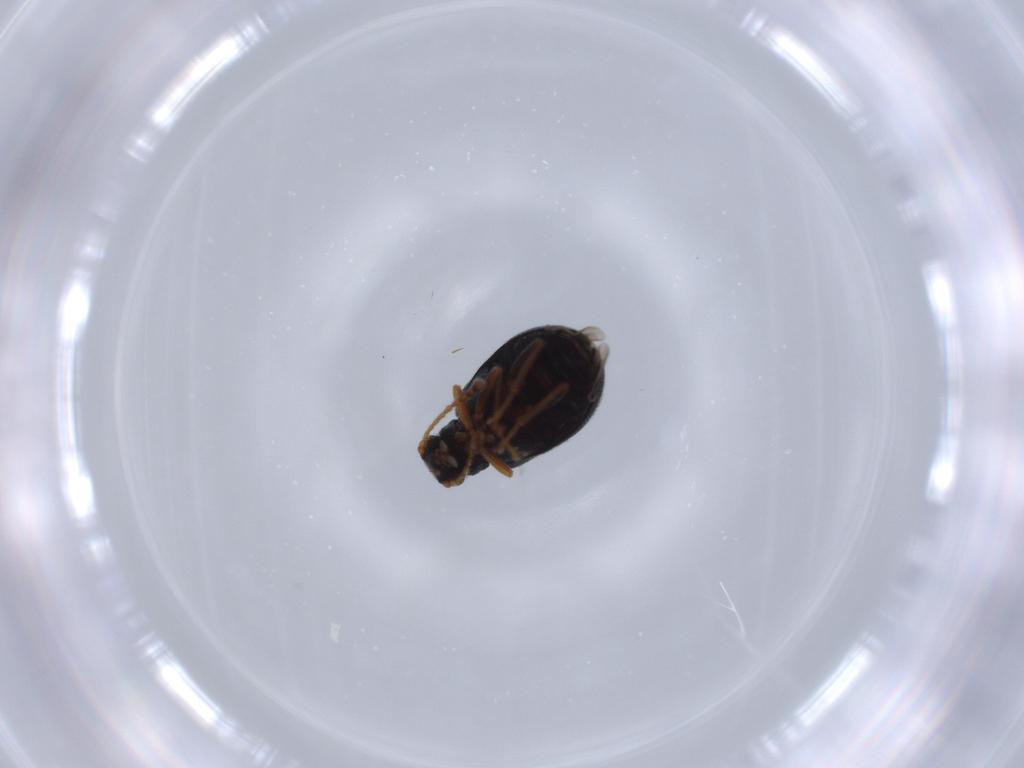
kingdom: Animalia
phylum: Arthropoda
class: Insecta
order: Coleoptera
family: Aderidae
